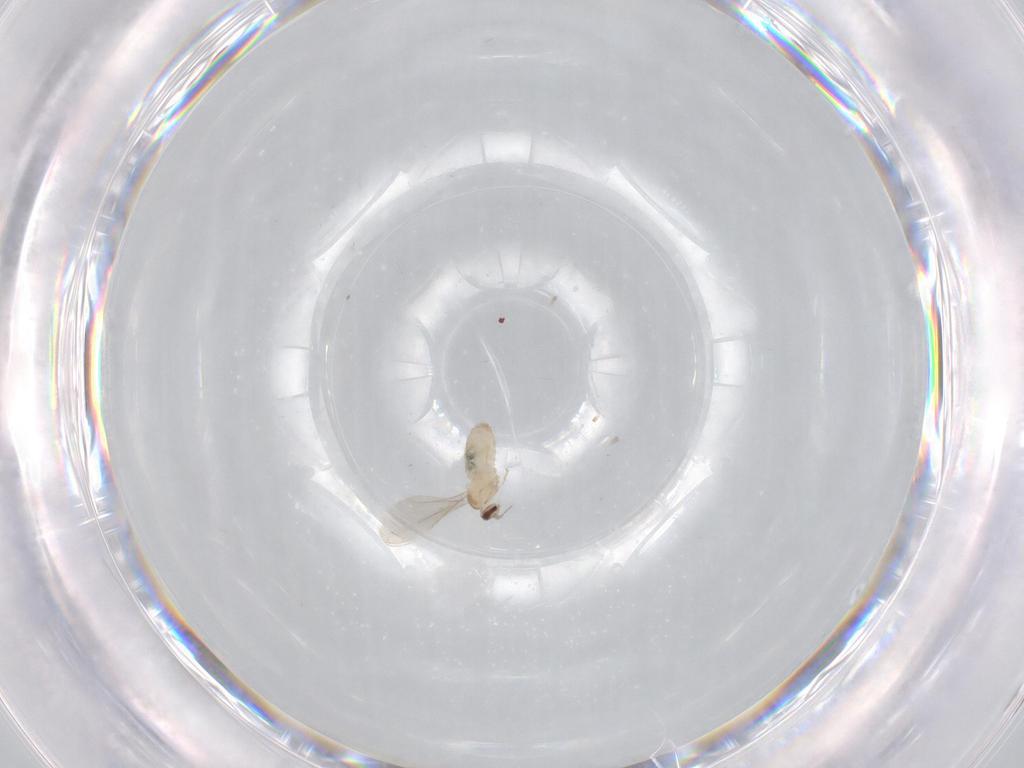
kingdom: Animalia
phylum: Arthropoda
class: Insecta
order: Diptera
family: Cecidomyiidae
